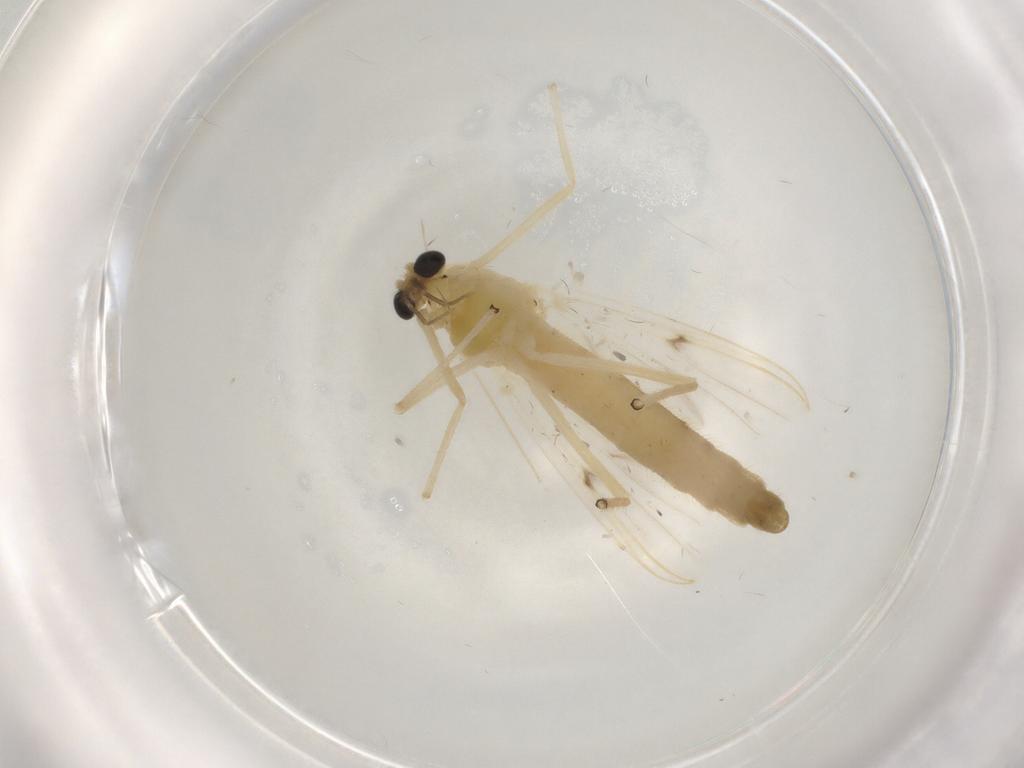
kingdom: Animalia
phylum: Arthropoda
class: Insecta
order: Diptera
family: Chironomidae
